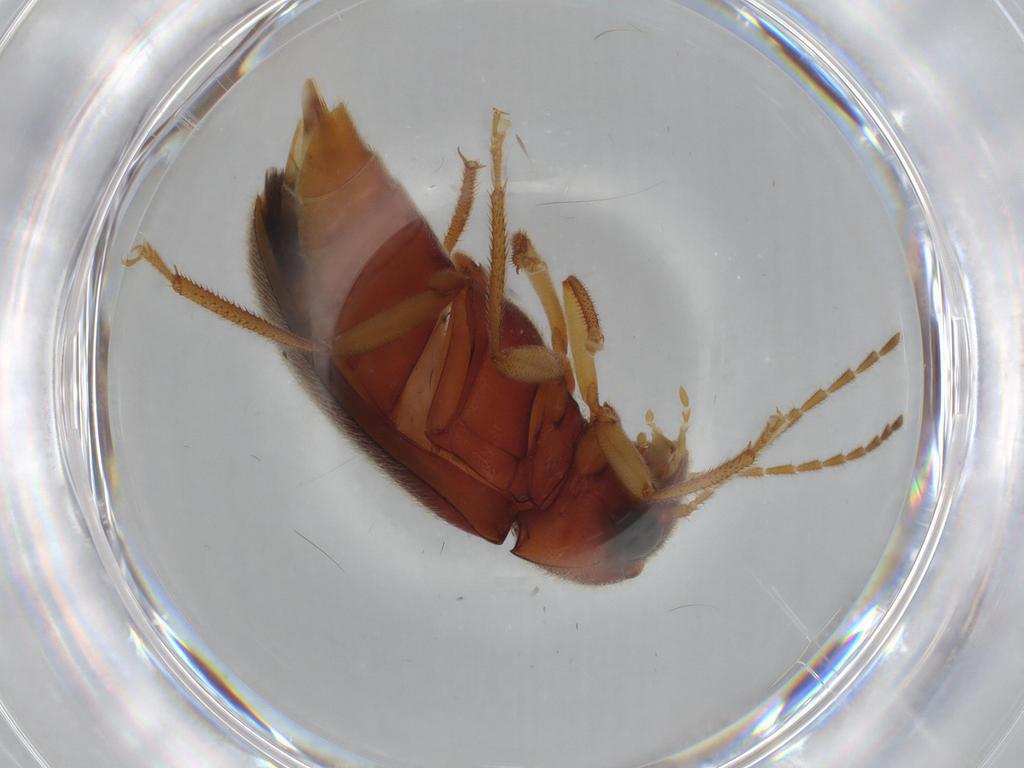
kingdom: Animalia
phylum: Arthropoda
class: Insecta
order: Coleoptera
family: Ptilodactylidae
